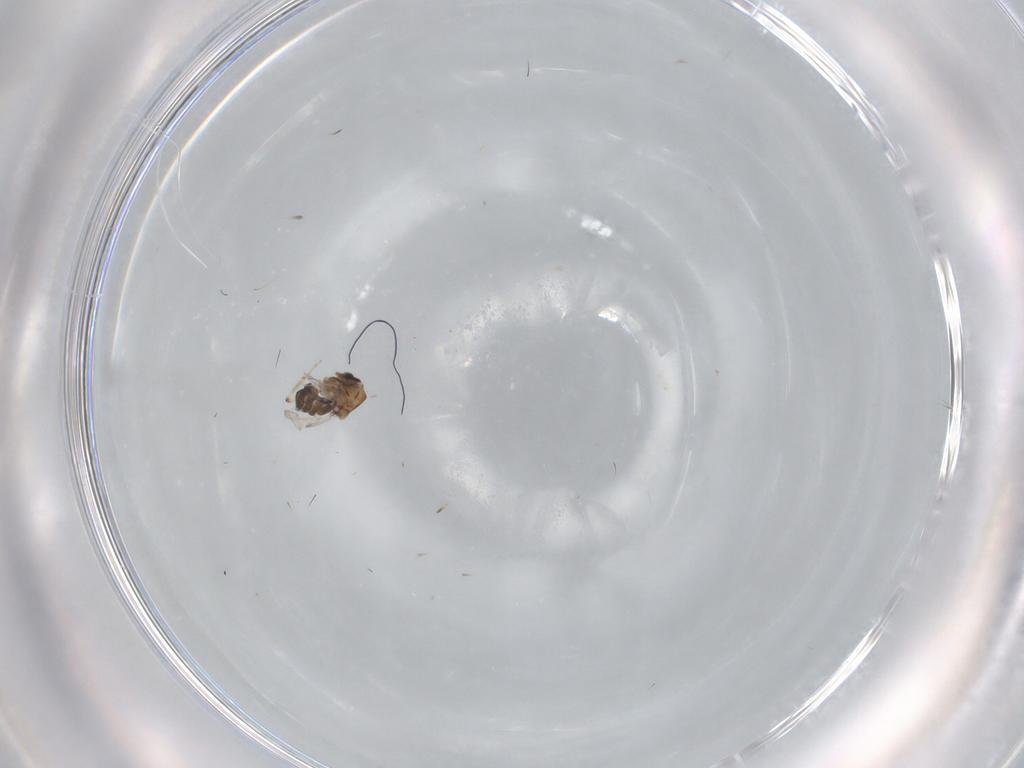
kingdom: Animalia
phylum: Arthropoda
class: Insecta
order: Diptera
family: Ceratopogonidae
